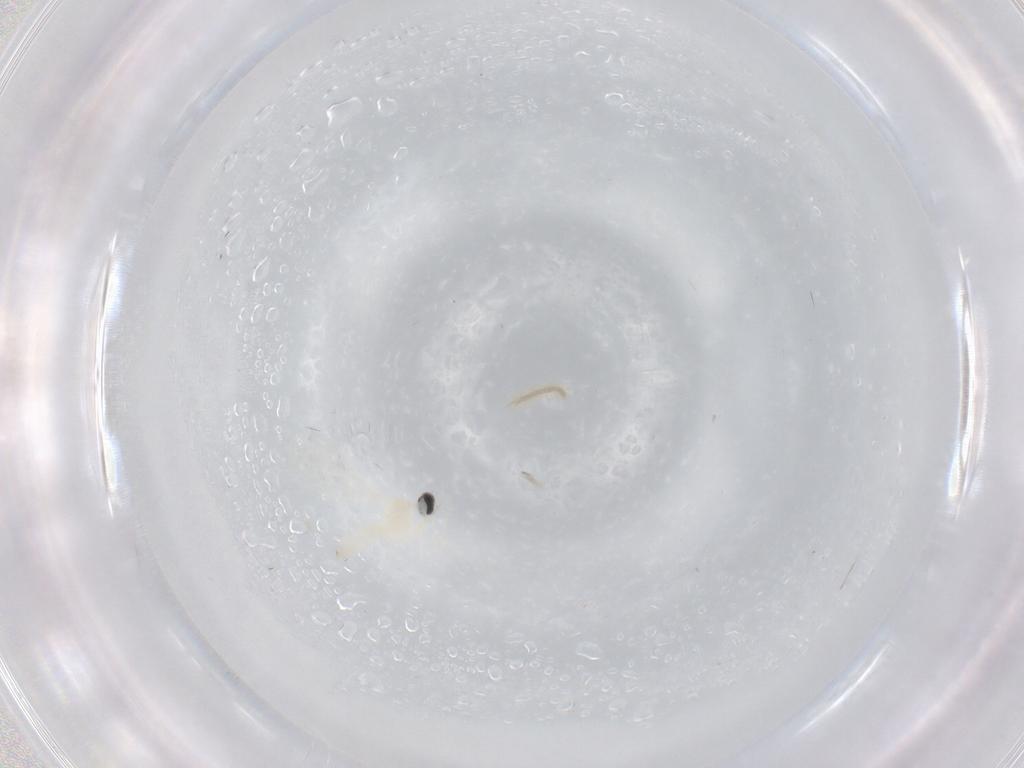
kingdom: Animalia
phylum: Arthropoda
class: Insecta
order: Diptera
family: Cecidomyiidae
